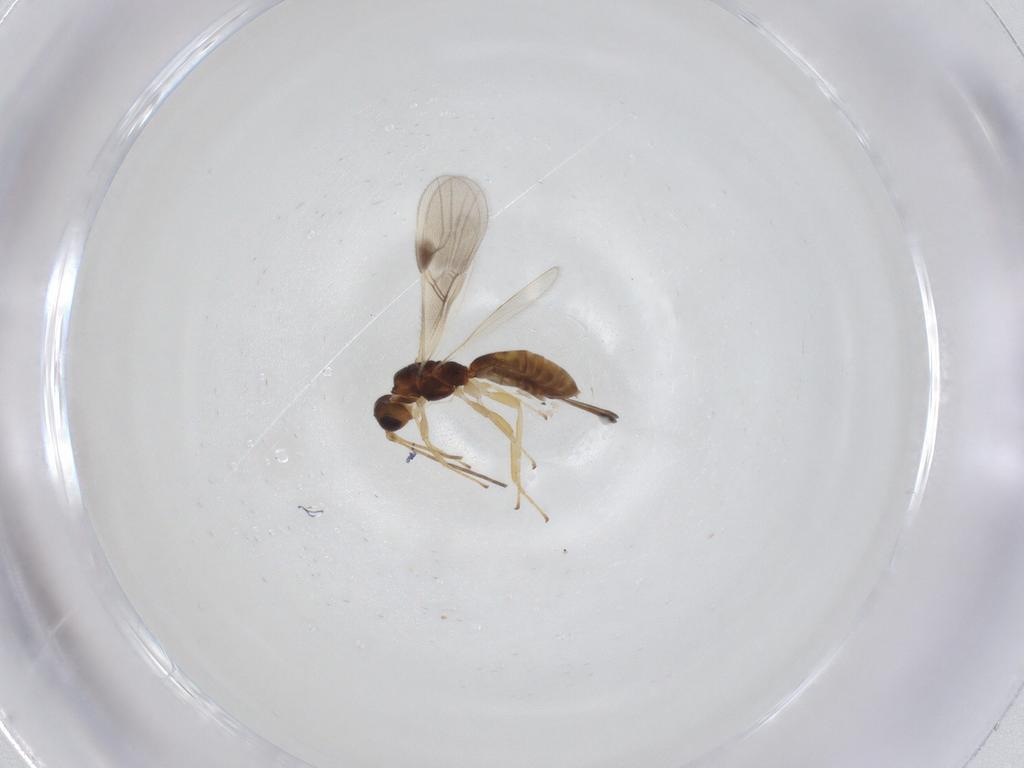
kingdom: Animalia
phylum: Arthropoda
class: Insecta
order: Hymenoptera
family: Braconidae
